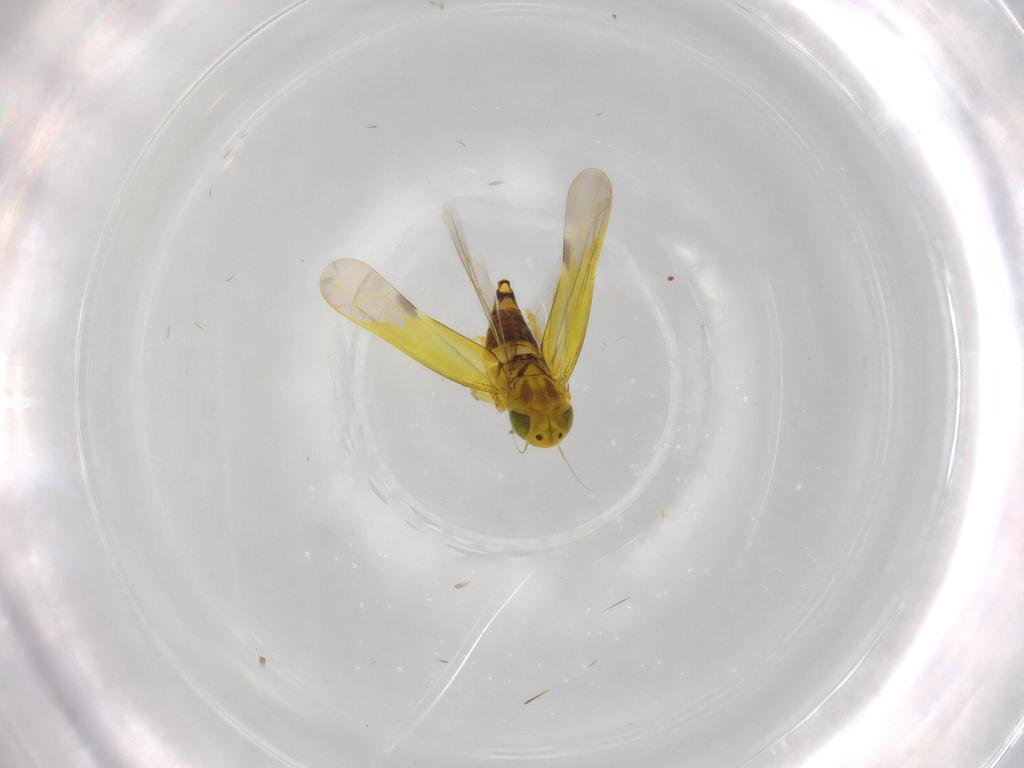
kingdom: Animalia
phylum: Arthropoda
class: Insecta
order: Hemiptera
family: Cicadellidae
